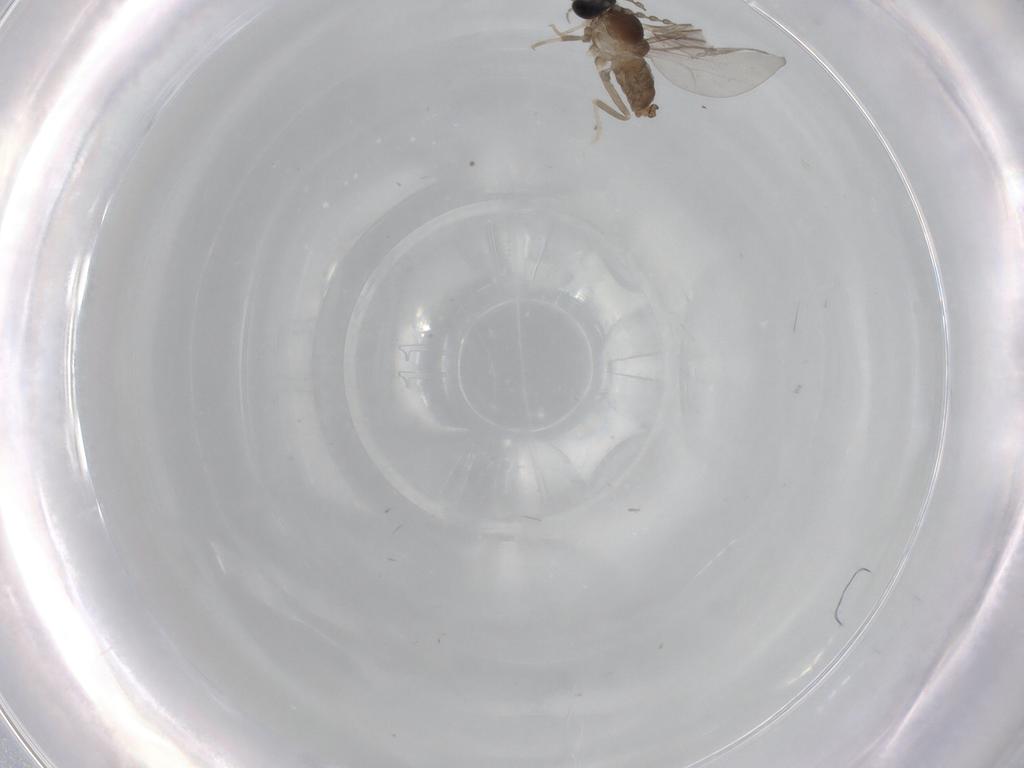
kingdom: Animalia
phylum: Arthropoda
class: Insecta
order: Diptera
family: Cecidomyiidae
